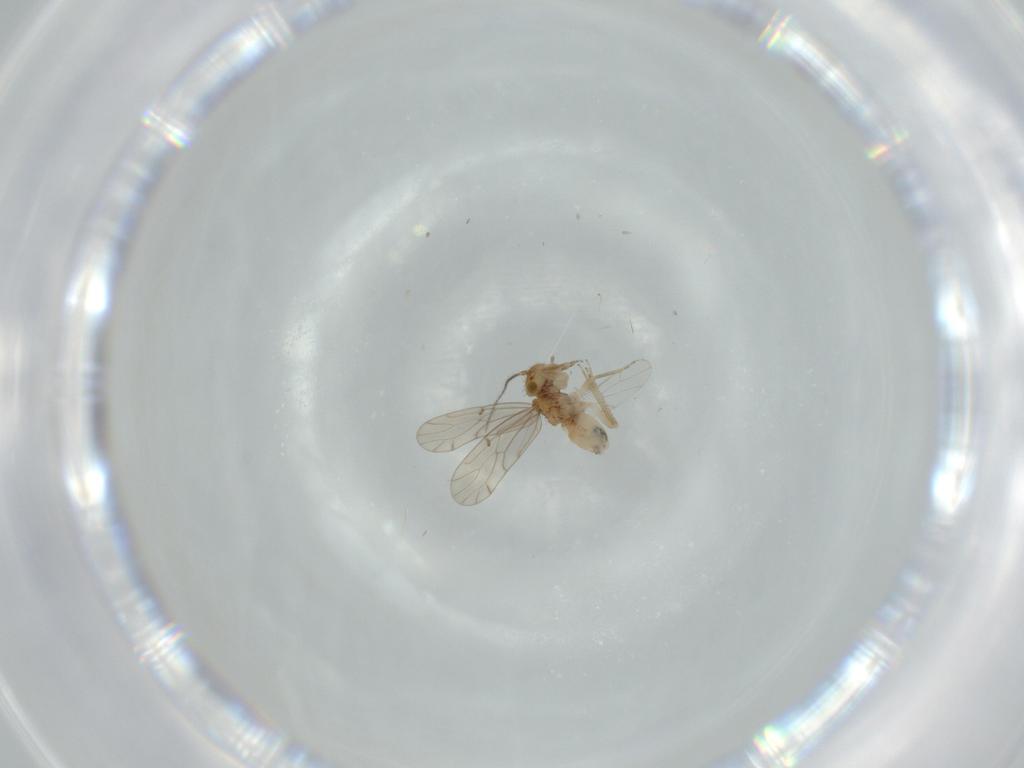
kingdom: Animalia
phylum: Arthropoda
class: Insecta
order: Psocodea
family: Ectopsocidae
